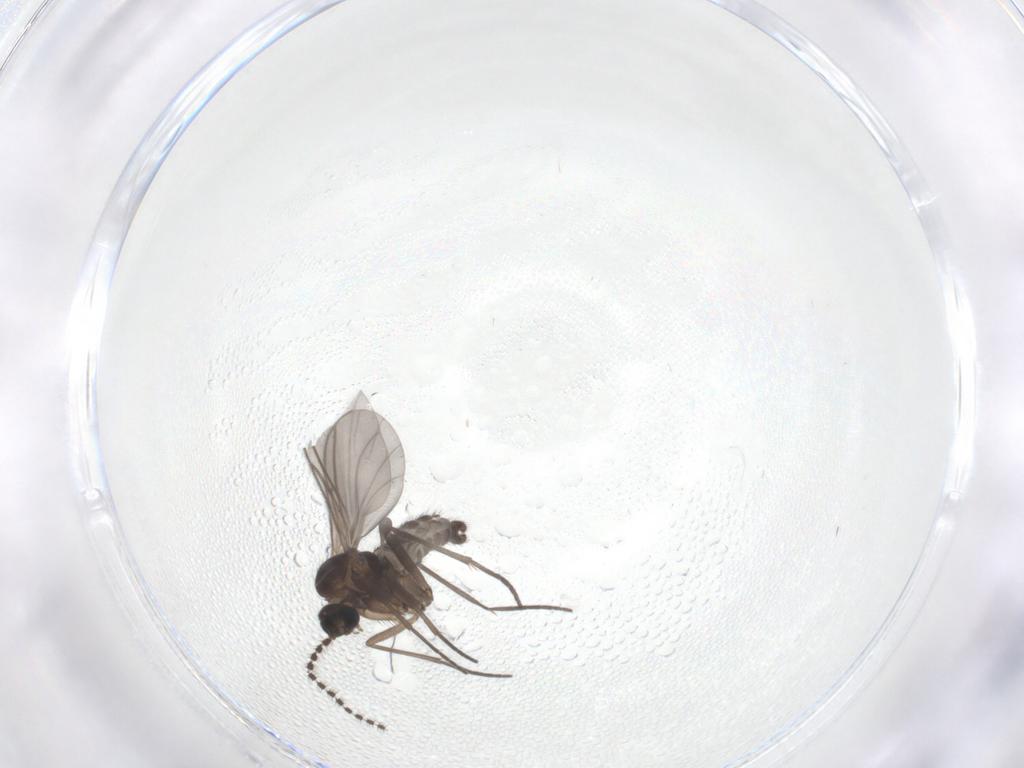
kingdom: Animalia
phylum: Arthropoda
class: Insecta
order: Diptera
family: Sciaridae
